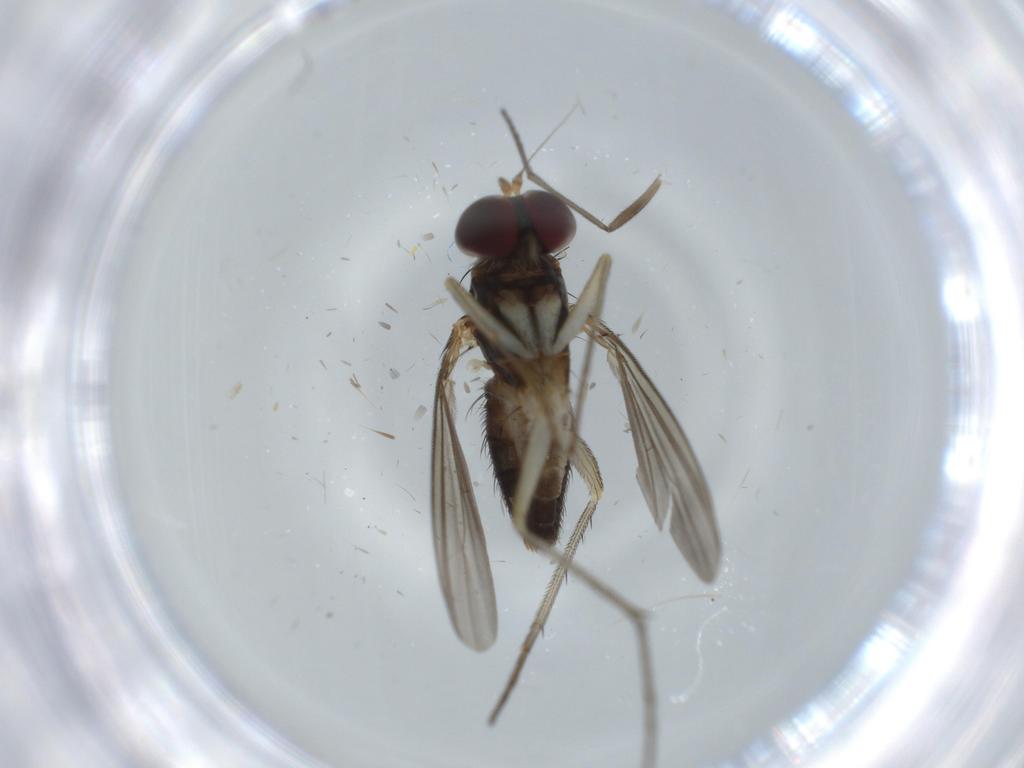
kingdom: Animalia
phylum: Arthropoda
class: Insecta
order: Diptera
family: Dolichopodidae
